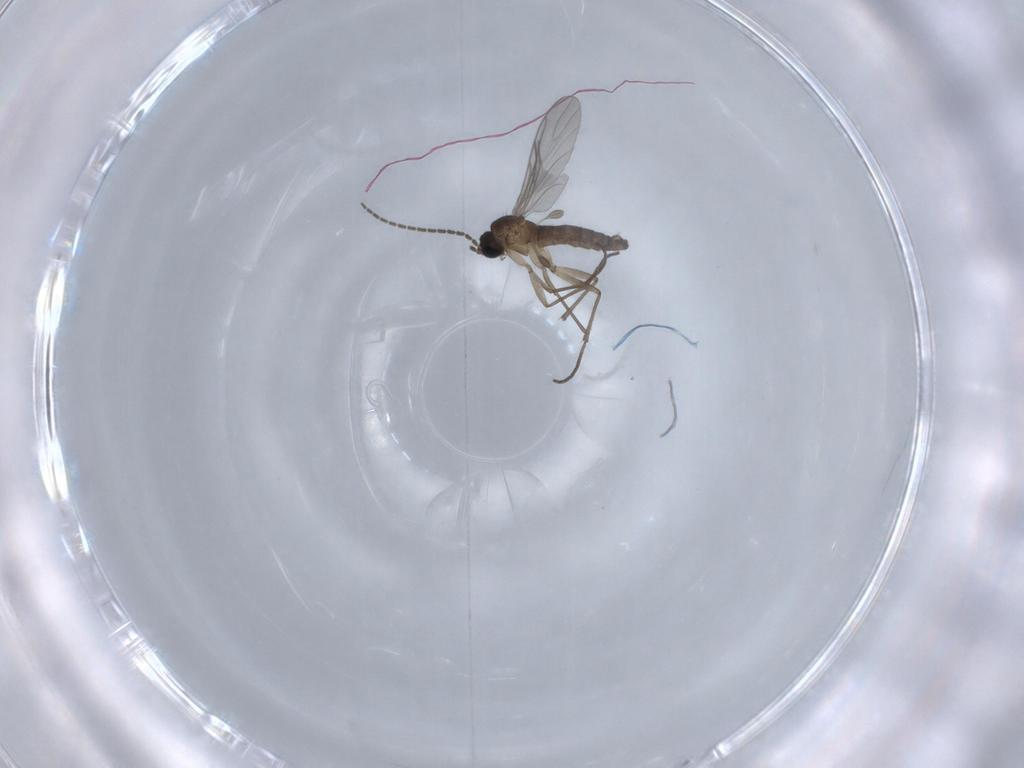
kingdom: Animalia
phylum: Arthropoda
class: Insecta
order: Diptera
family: Sciaridae
